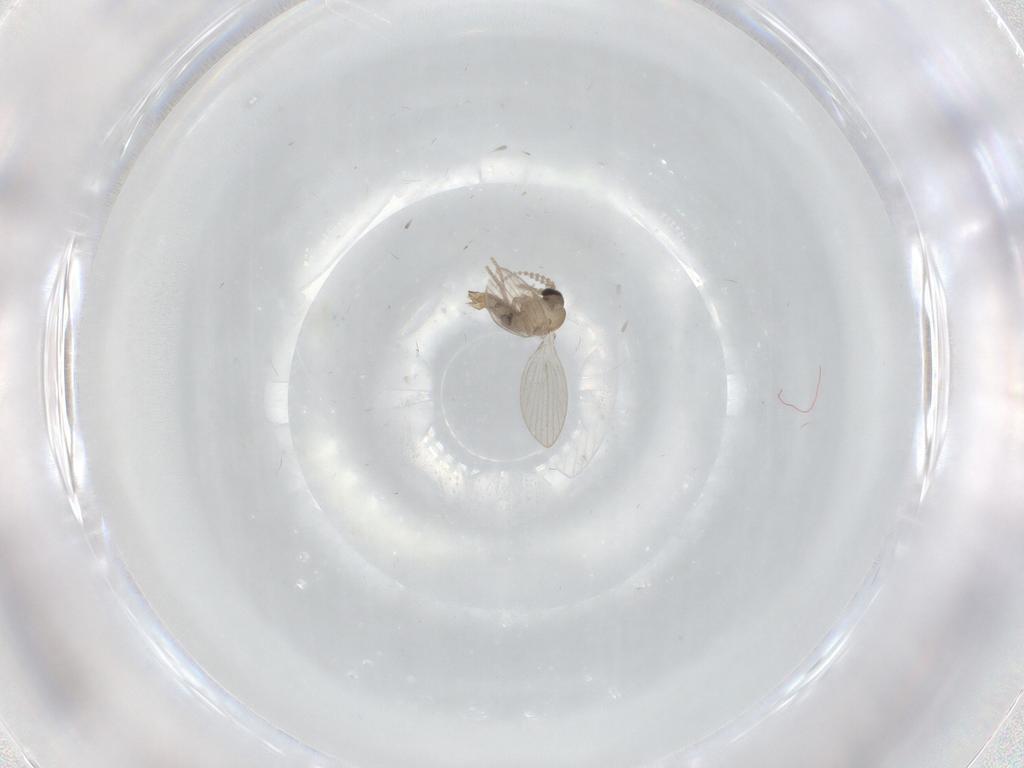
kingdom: Animalia
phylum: Arthropoda
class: Insecta
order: Diptera
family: Psychodidae
